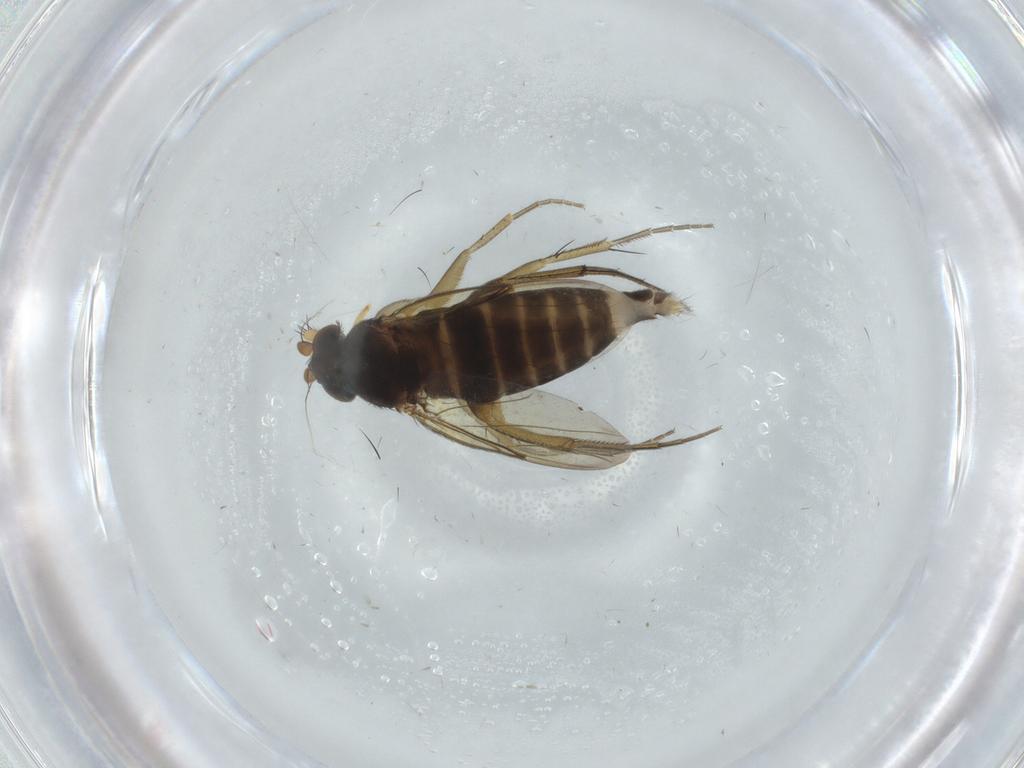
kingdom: Animalia
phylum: Arthropoda
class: Insecta
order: Diptera
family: Phoridae
